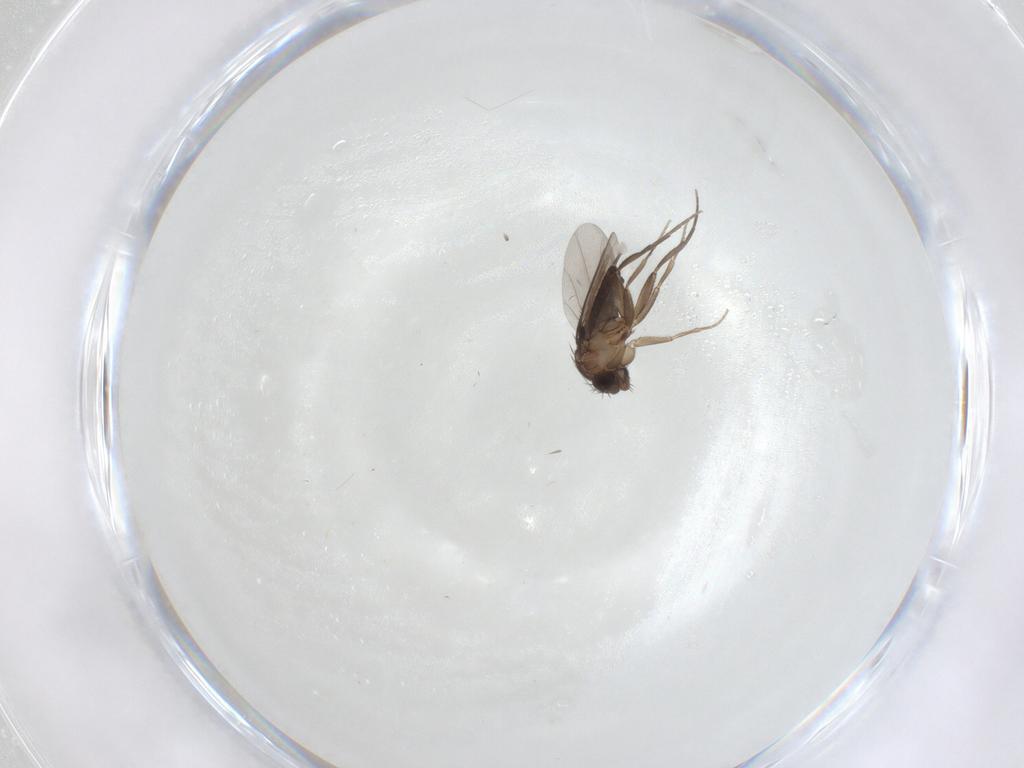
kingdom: Animalia
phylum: Arthropoda
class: Insecta
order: Diptera
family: Phoridae
